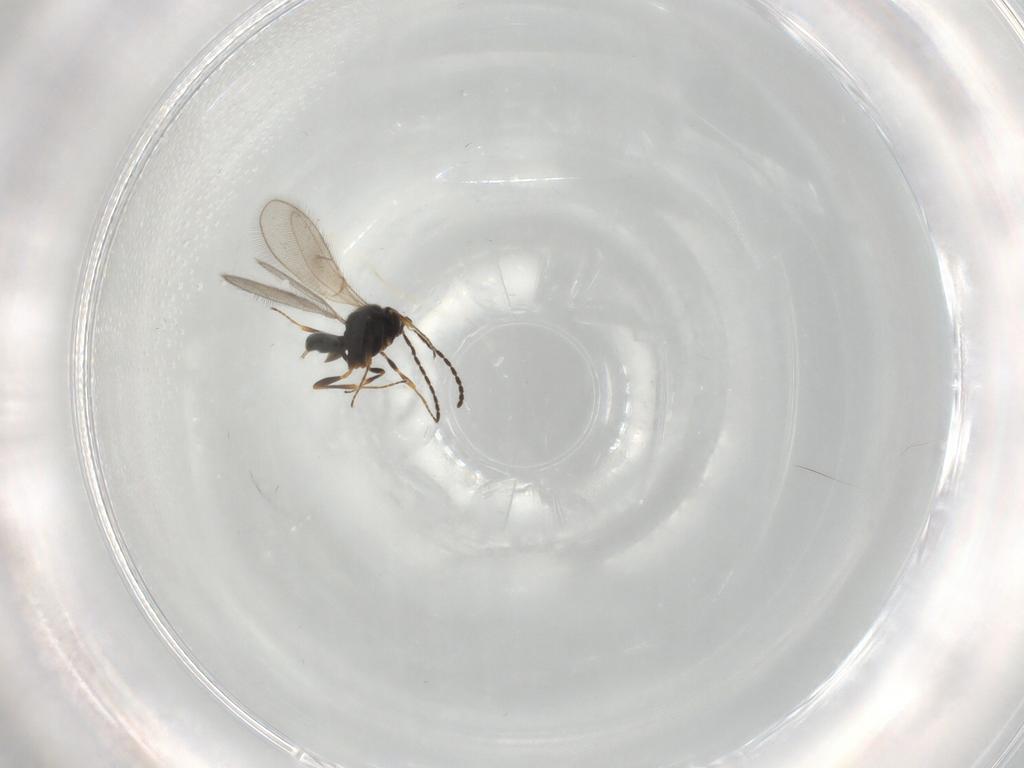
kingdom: Animalia
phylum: Arthropoda
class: Insecta
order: Hymenoptera
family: Scelionidae
